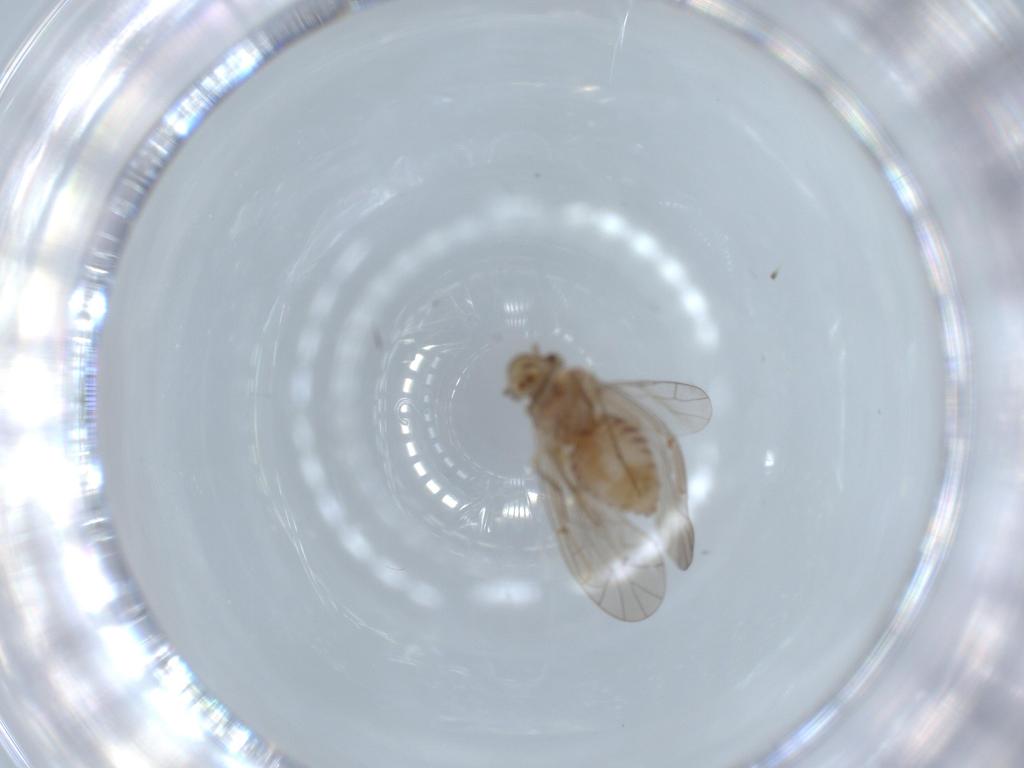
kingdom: Animalia
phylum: Arthropoda
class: Insecta
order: Psocodea
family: Lachesillidae
